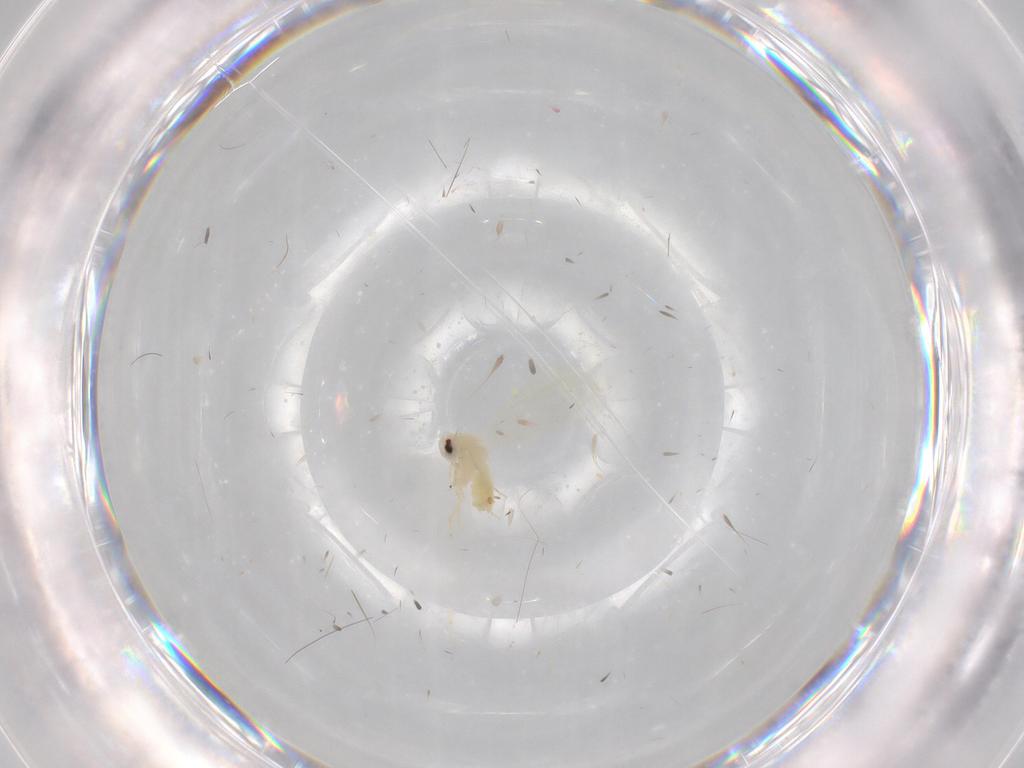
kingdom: Animalia
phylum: Arthropoda
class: Insecta
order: Hemiptera
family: Aleyrodidae
